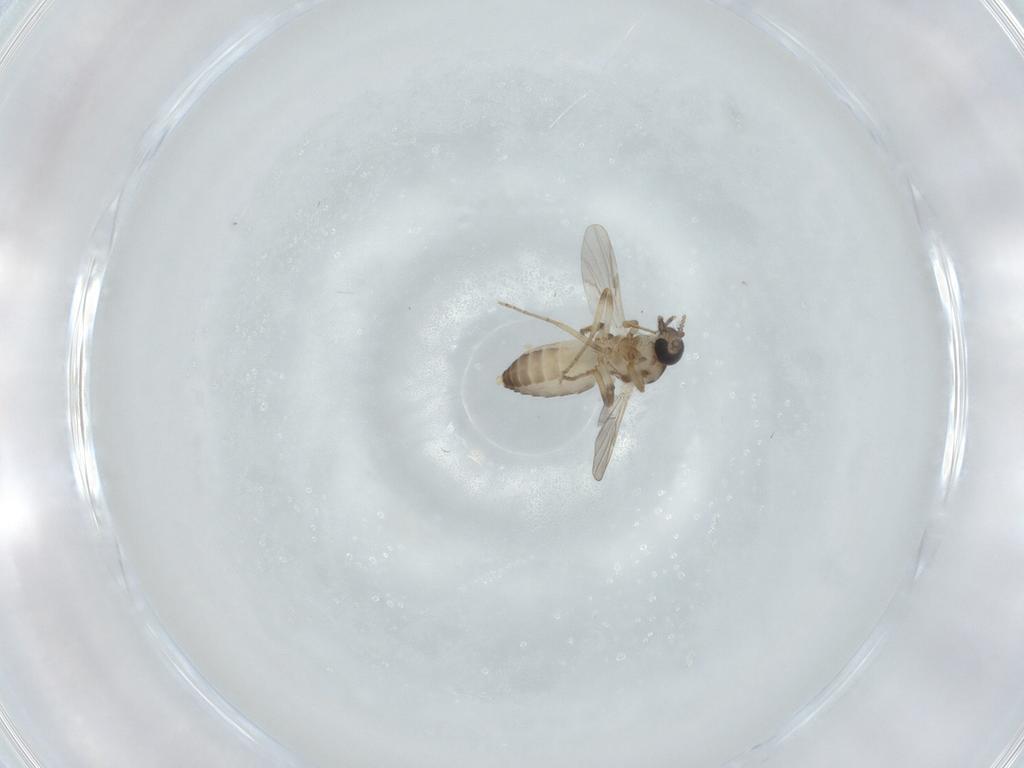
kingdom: Animalia
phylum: Arthropoda
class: Insecta
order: Diptera
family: Ceratopogonidae
